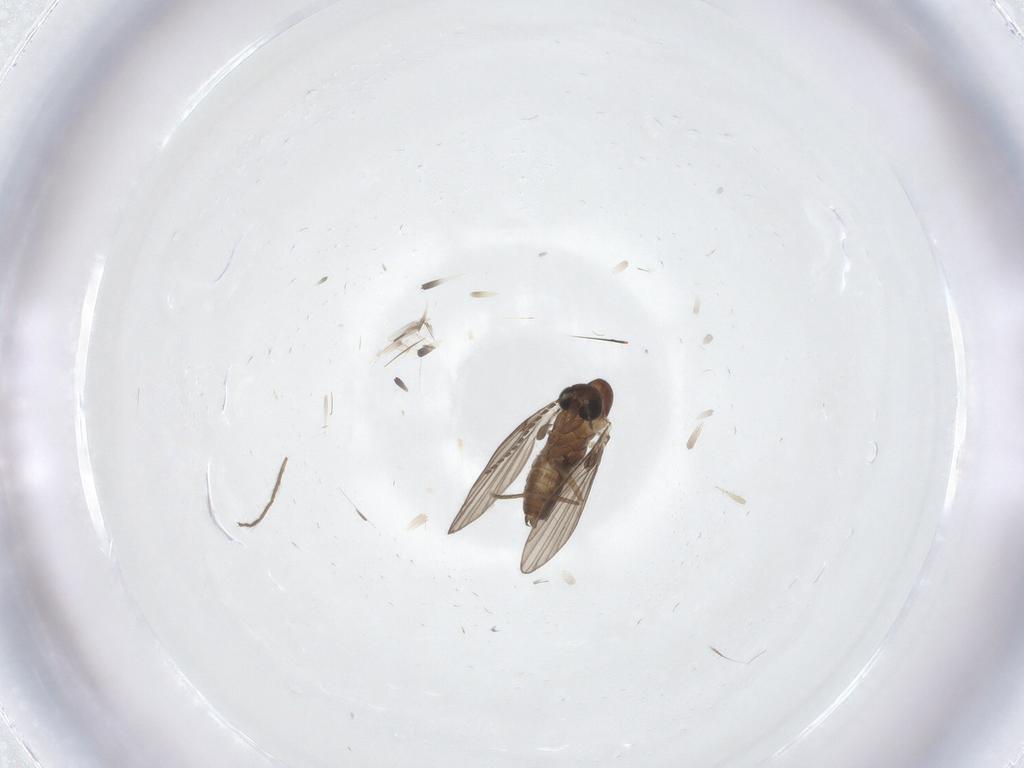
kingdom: Animalia
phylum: Arthropoda
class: Insecta
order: Diptera
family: Chironomidae
